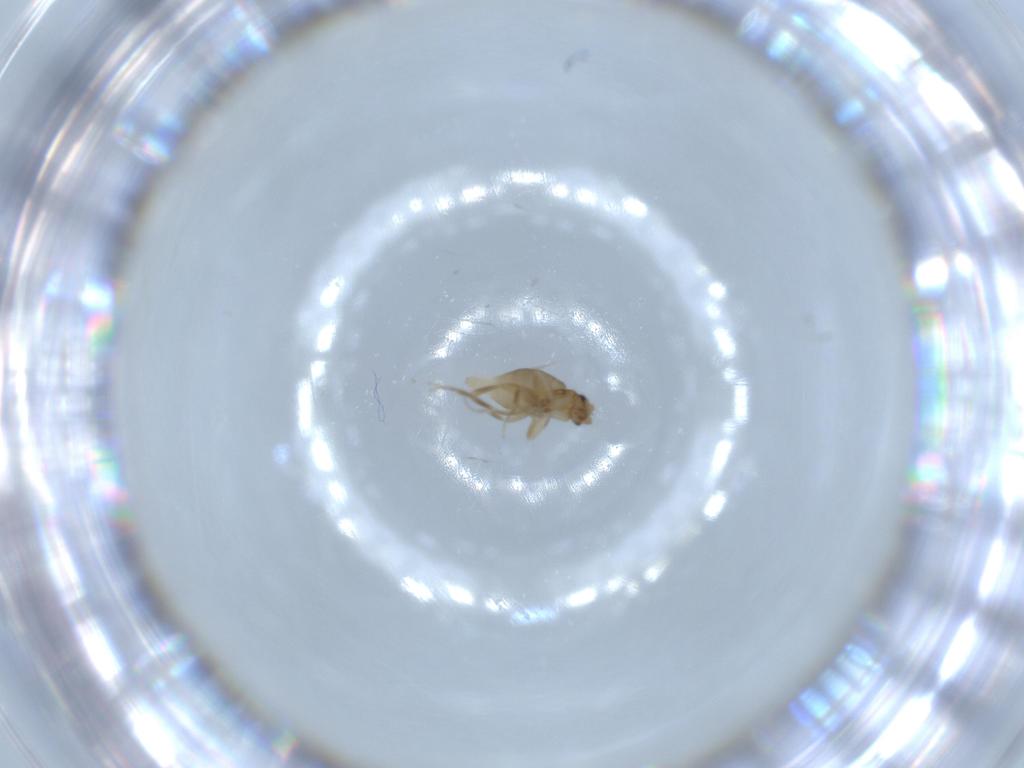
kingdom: Animalia
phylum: Arthropoda
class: Insecta
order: Diptera
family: Phoridae
